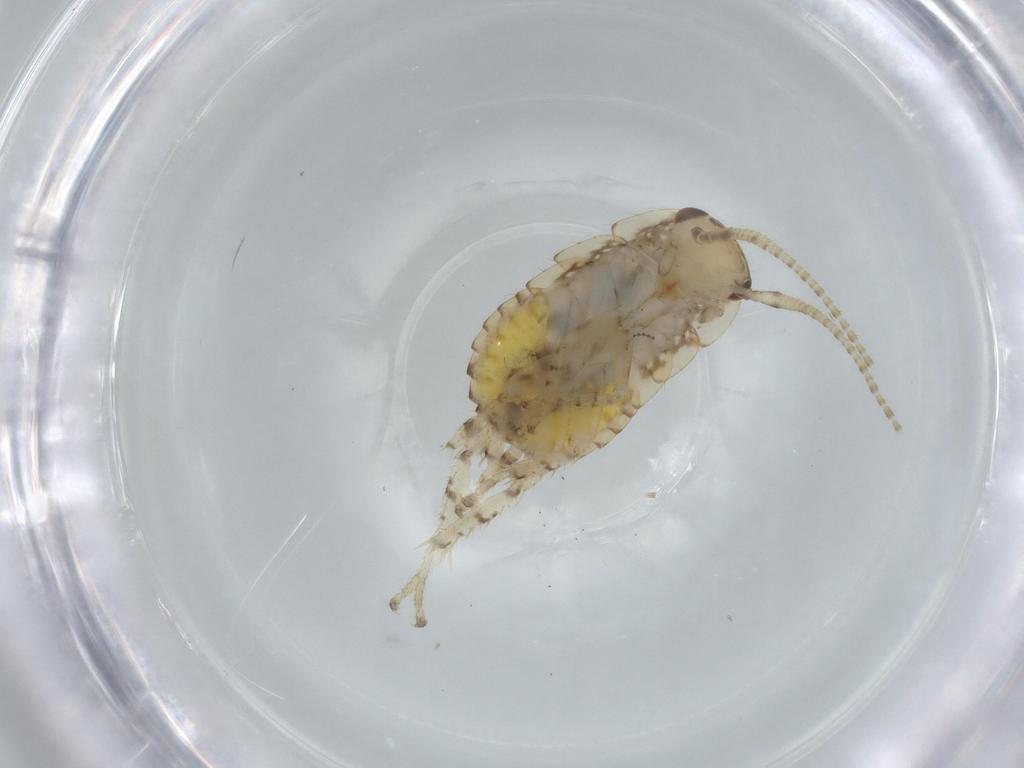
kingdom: Animalia
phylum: Arthropoda
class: Insecta
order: Blattodea
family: Ectobiidae
